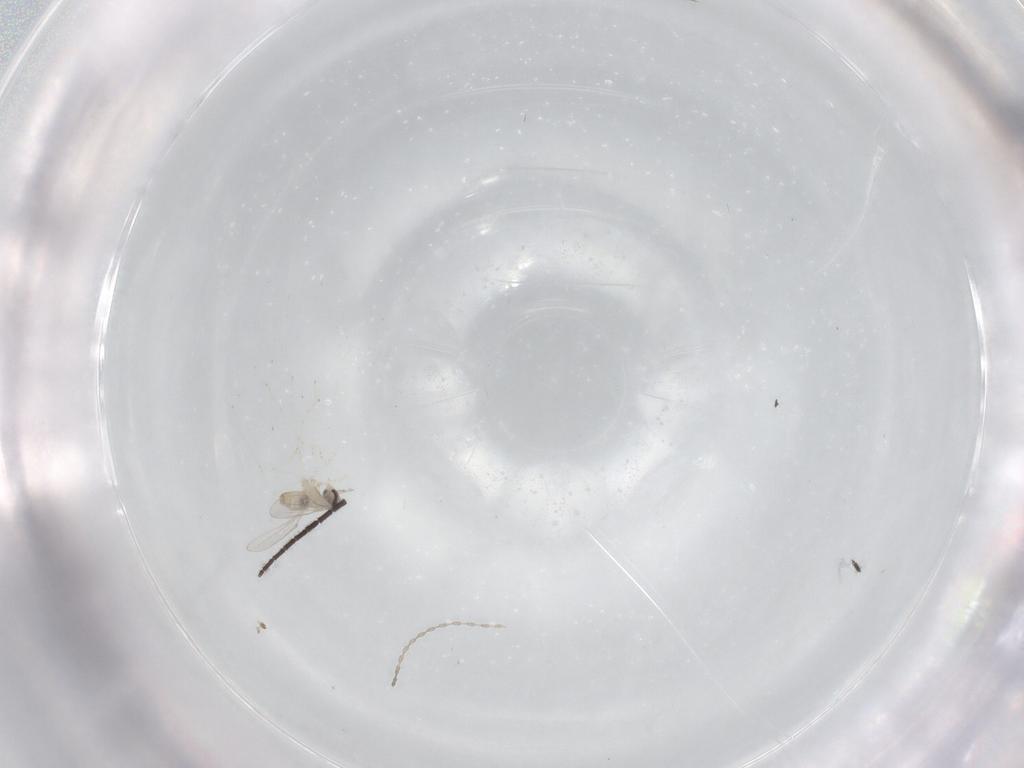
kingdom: Animalia
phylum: Arthropoda
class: Insecta
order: Diptera
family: Cecidomyiidae
